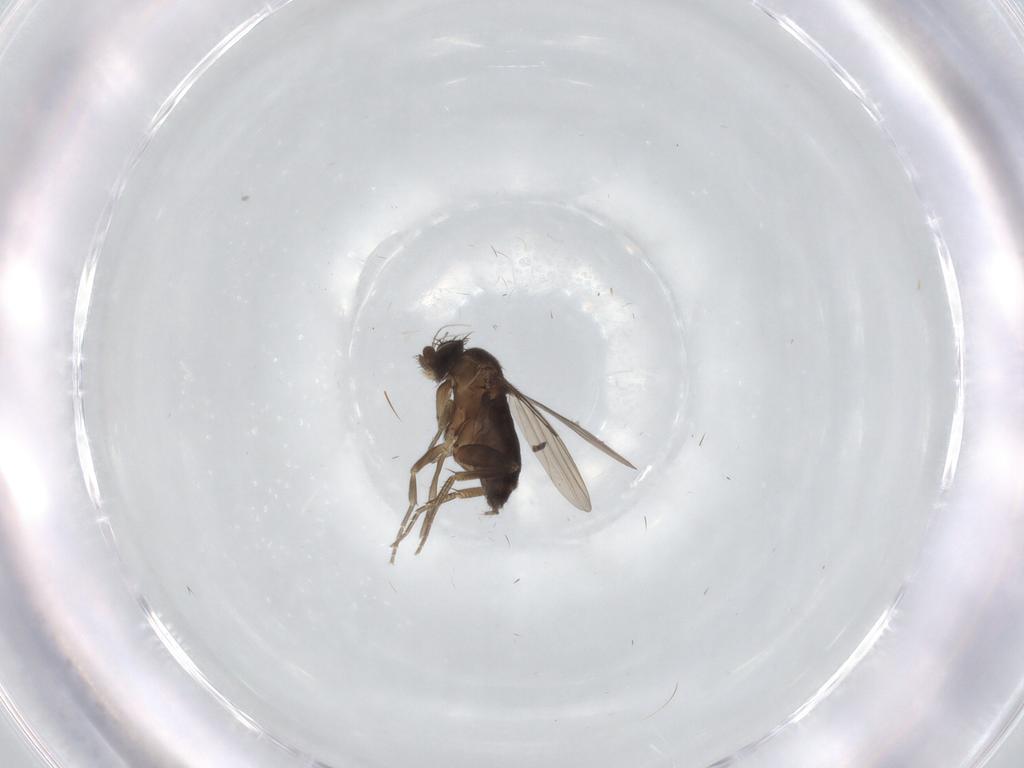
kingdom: Animalia
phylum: Arthropoda
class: Insecta
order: Diptera
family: Phoridae
